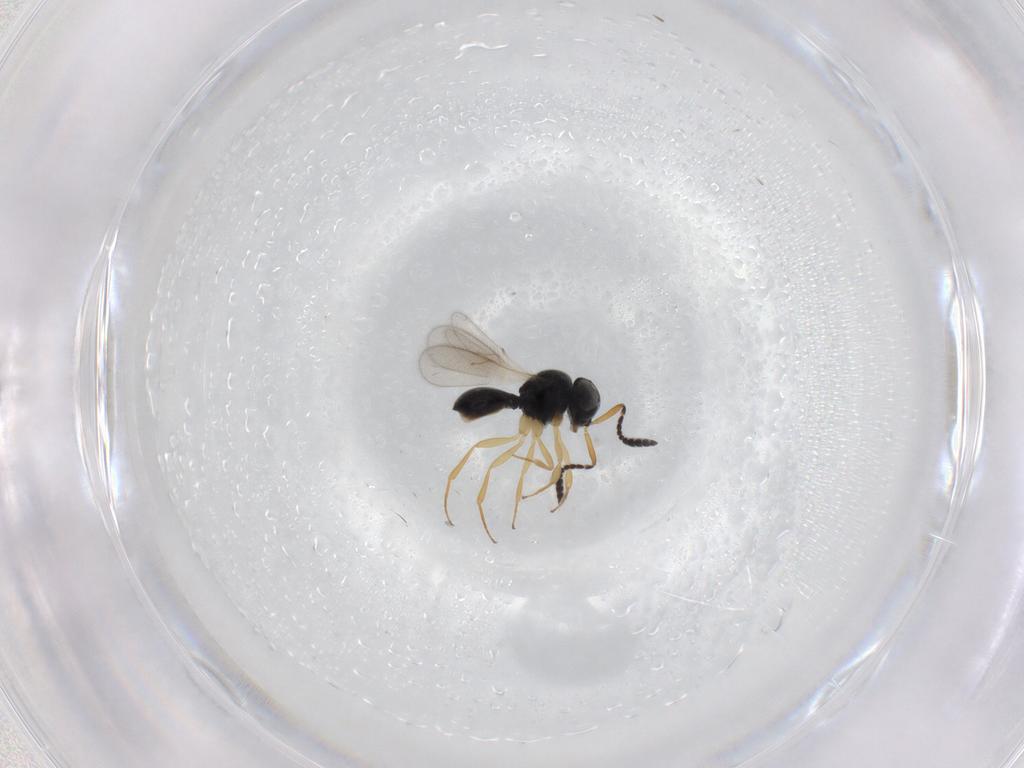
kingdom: Animalia
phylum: Arthropoda
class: Insecta
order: Hymenoptera
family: Scelionidae
